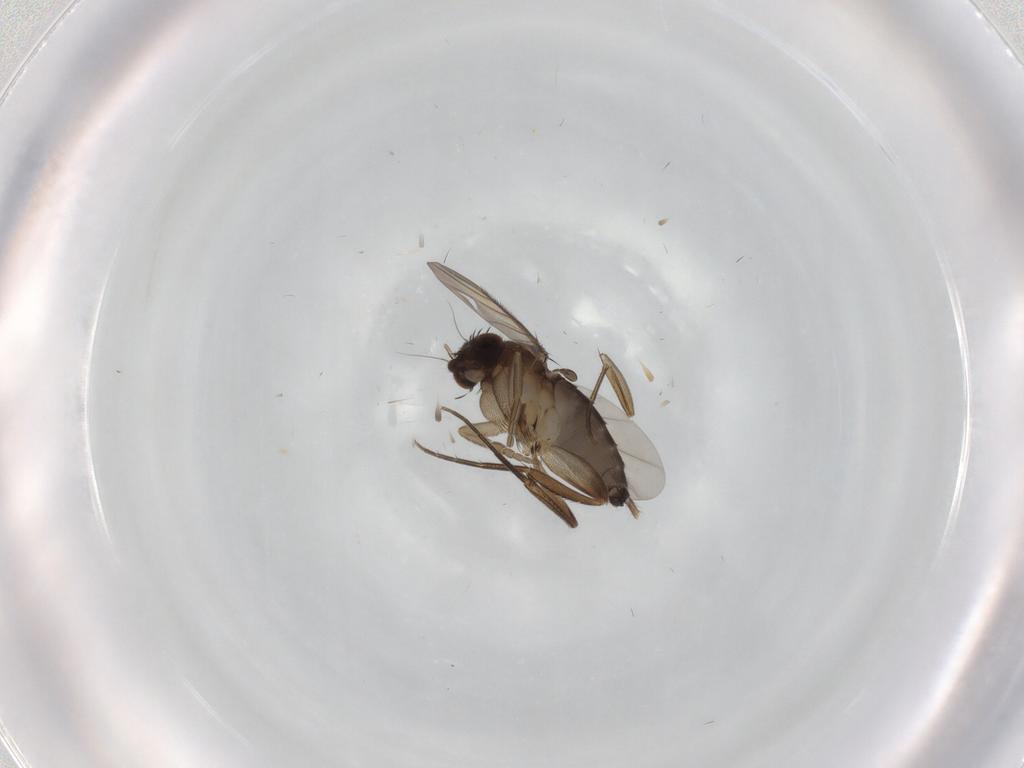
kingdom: Animalia
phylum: Arthropoda
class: Insecta
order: Diptera
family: Phoridae
